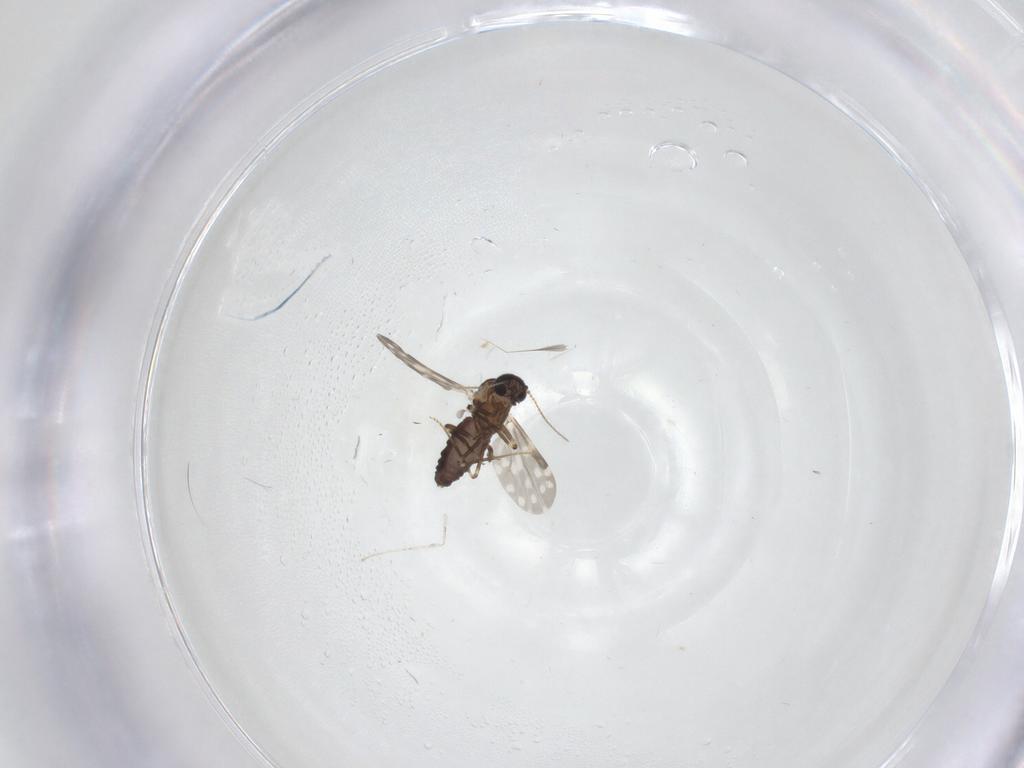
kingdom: Animalia
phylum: Arthropoda
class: Insecta
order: Diptera
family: Ceratopogonidae
